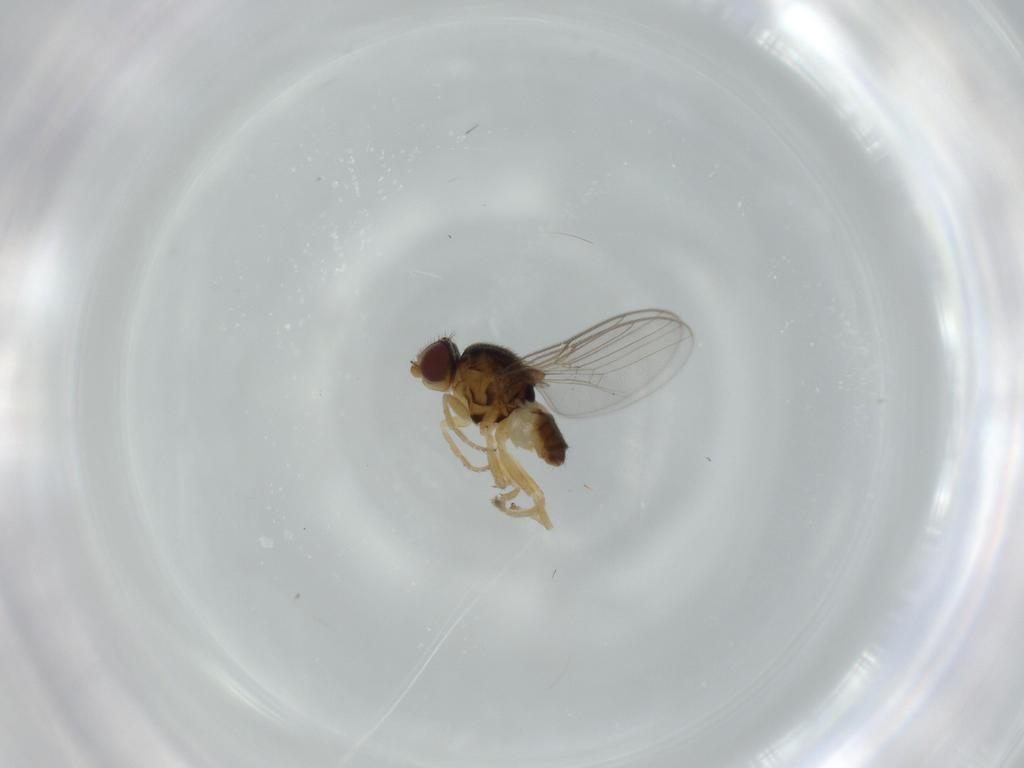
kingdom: Animalia
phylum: Arthropoda
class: Insecta
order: Diptera
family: Chloropidae
